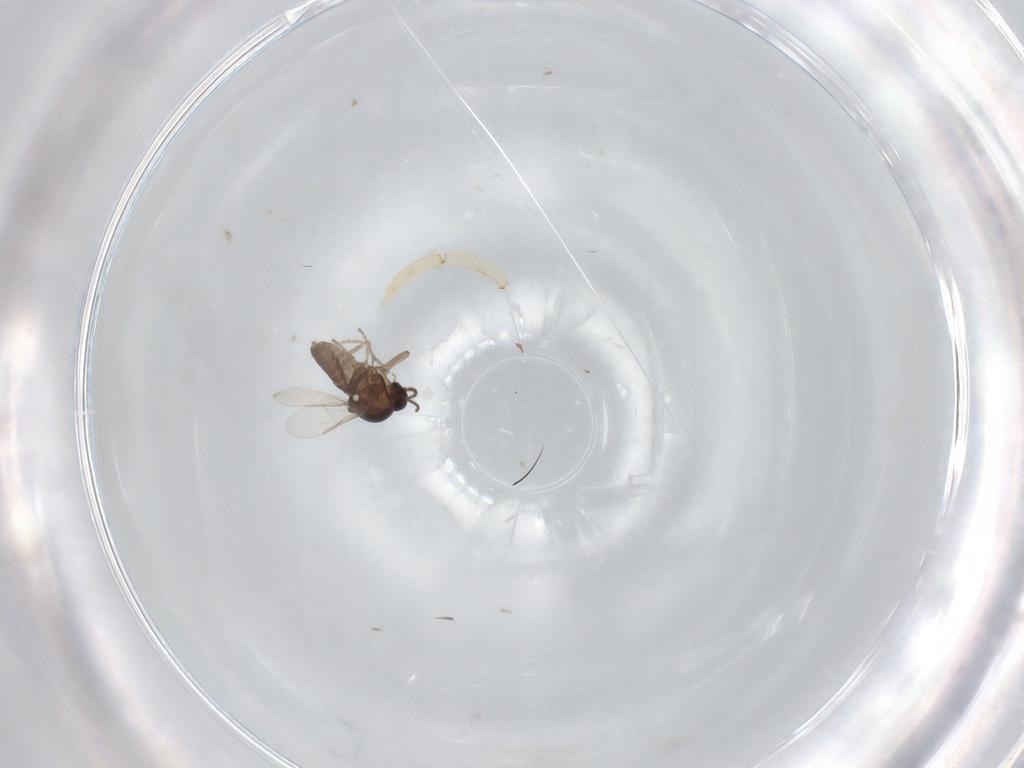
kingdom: Animalia
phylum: Arthropoda
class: Insecta
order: Diptera
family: Ceratopogonidae
